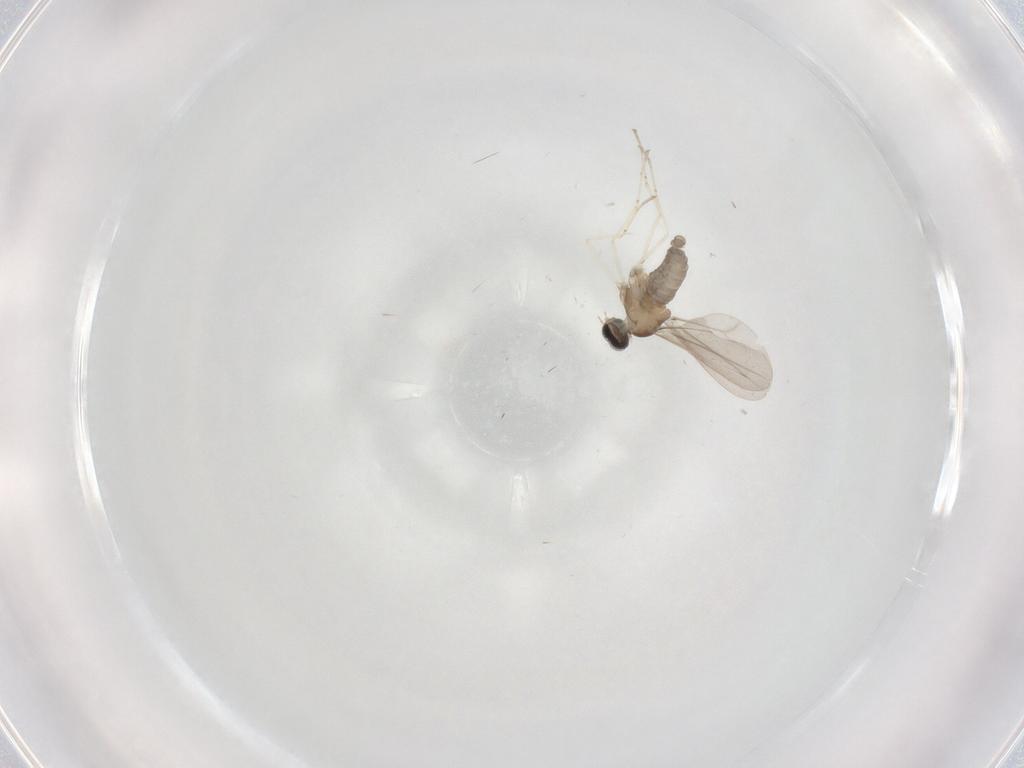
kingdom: Animalia
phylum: Arthropoda
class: Insecta
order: Diptera
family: Cecidomyiidae
